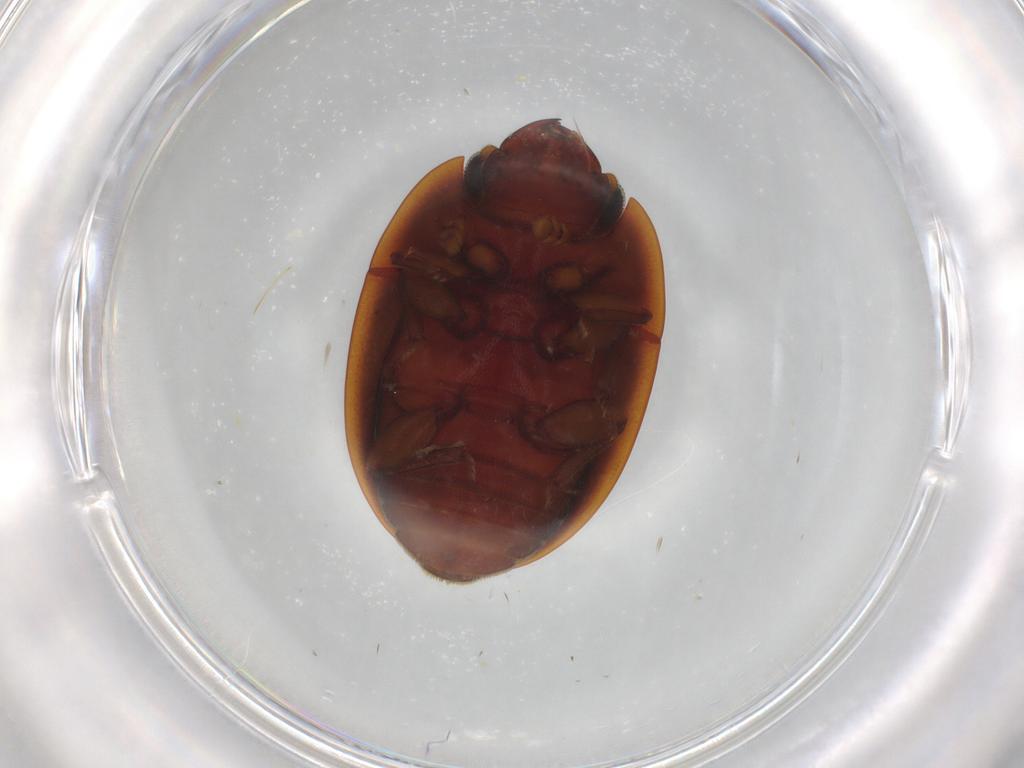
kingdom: Animalia
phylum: Arthropoda
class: Insecta
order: Coleoptera
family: Nitidulidae
